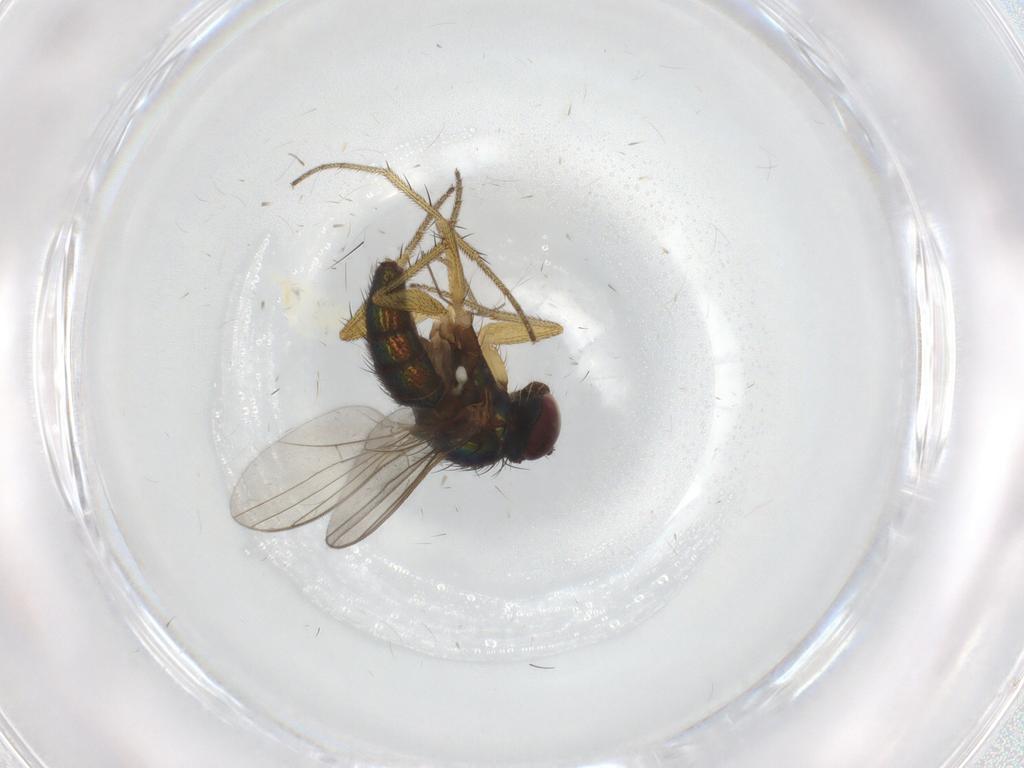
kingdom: Animalia
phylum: Arthropoda
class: Insecta
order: Diptera
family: Chironomidae
